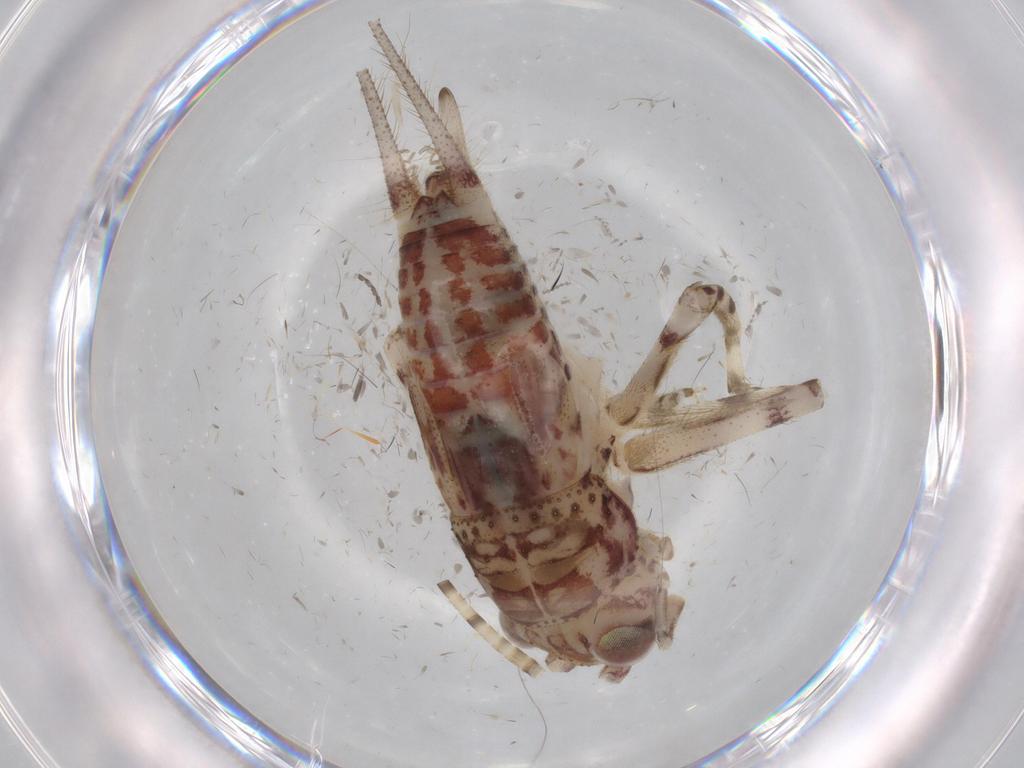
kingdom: Animalia
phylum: Arthropoda
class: Insecta
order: Orthoptera
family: Trigonidiidae
